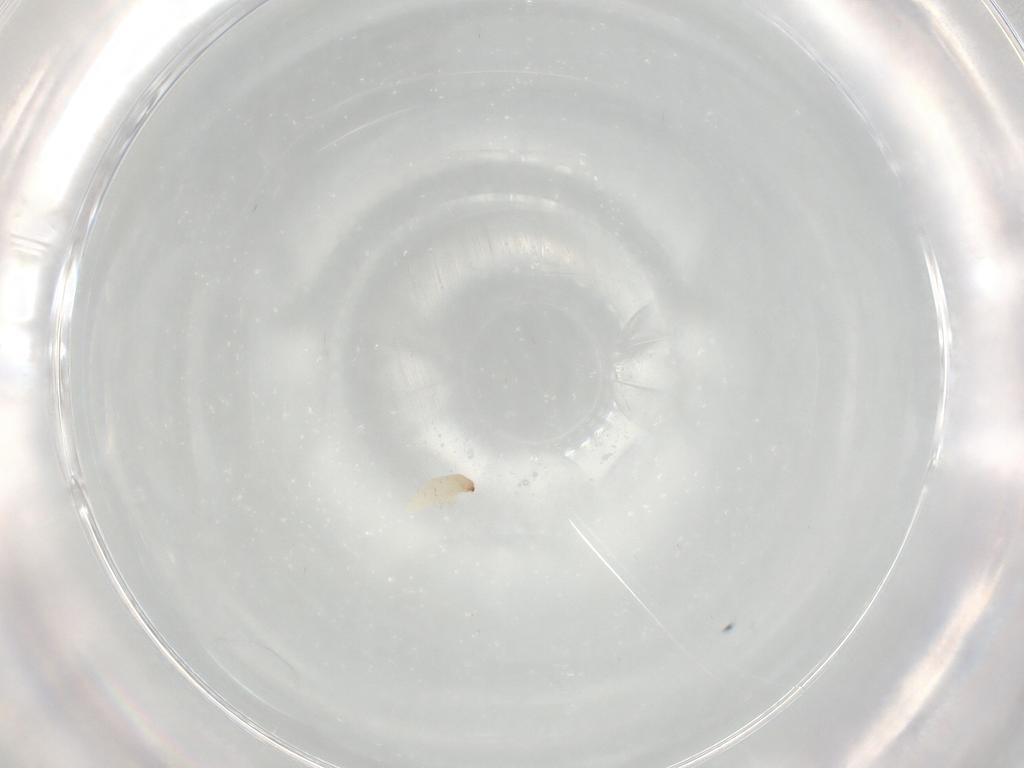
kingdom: Animalia
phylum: Arthropoda
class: Insecta
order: Coleoptera
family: Chrysomelidae
